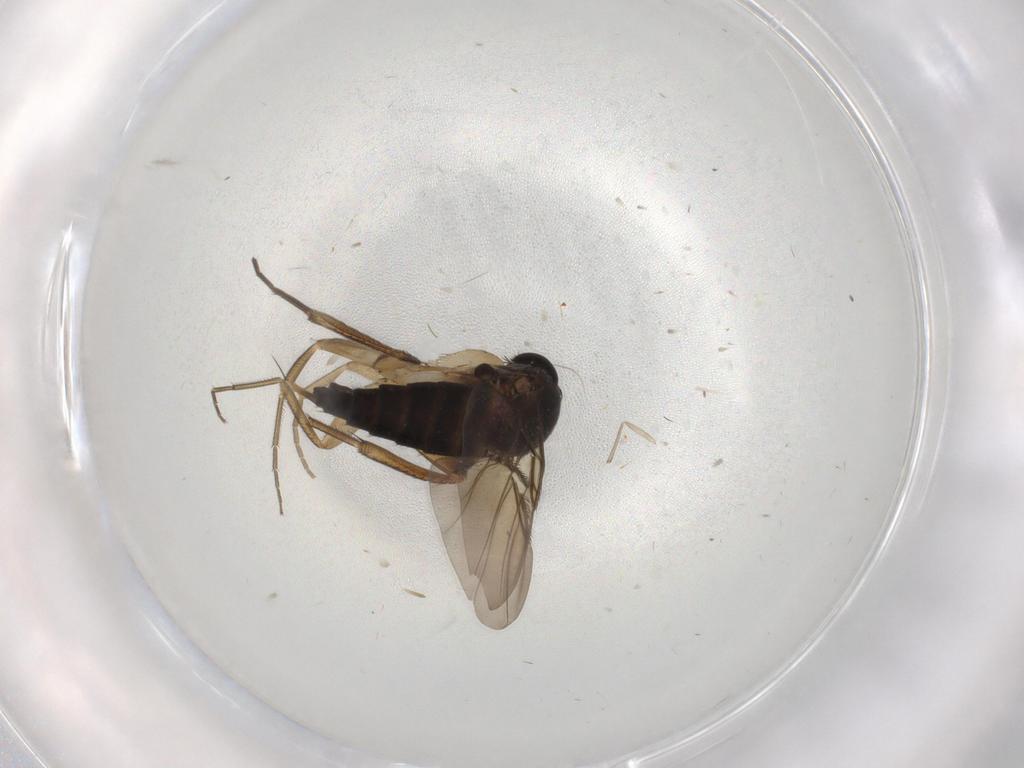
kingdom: Animalia
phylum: Arthropoda
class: Insecta
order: Diptera
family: Phoridae
